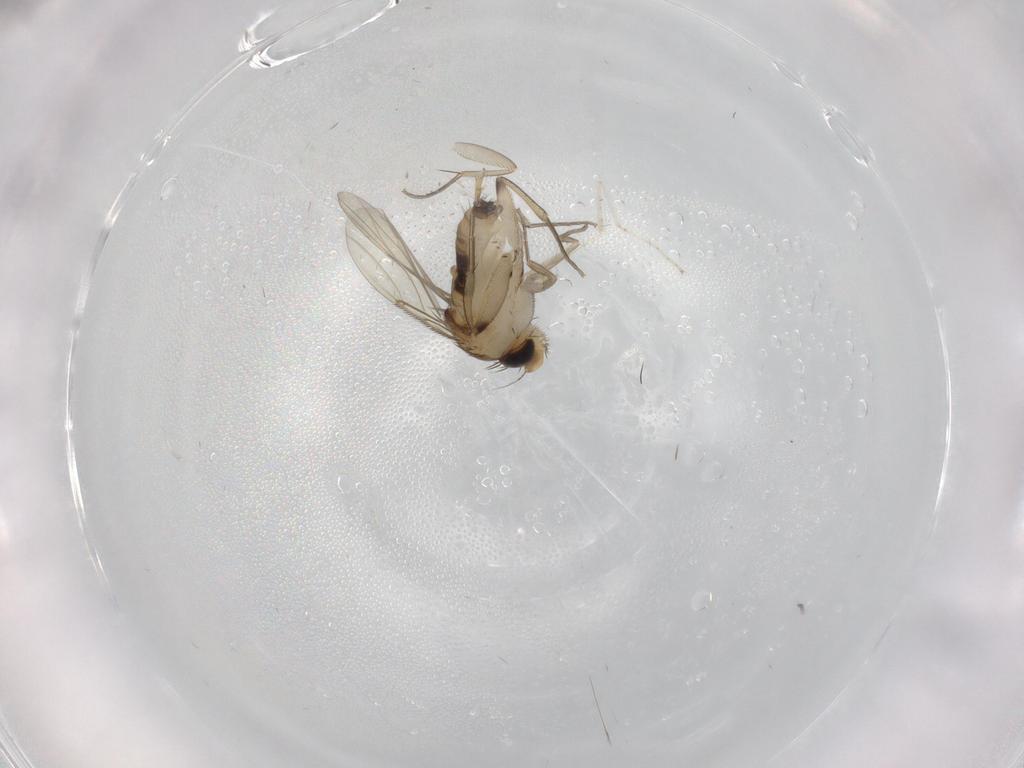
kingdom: Animalia
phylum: Arthropoda
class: Insecta
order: Diptera
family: Phoridae
